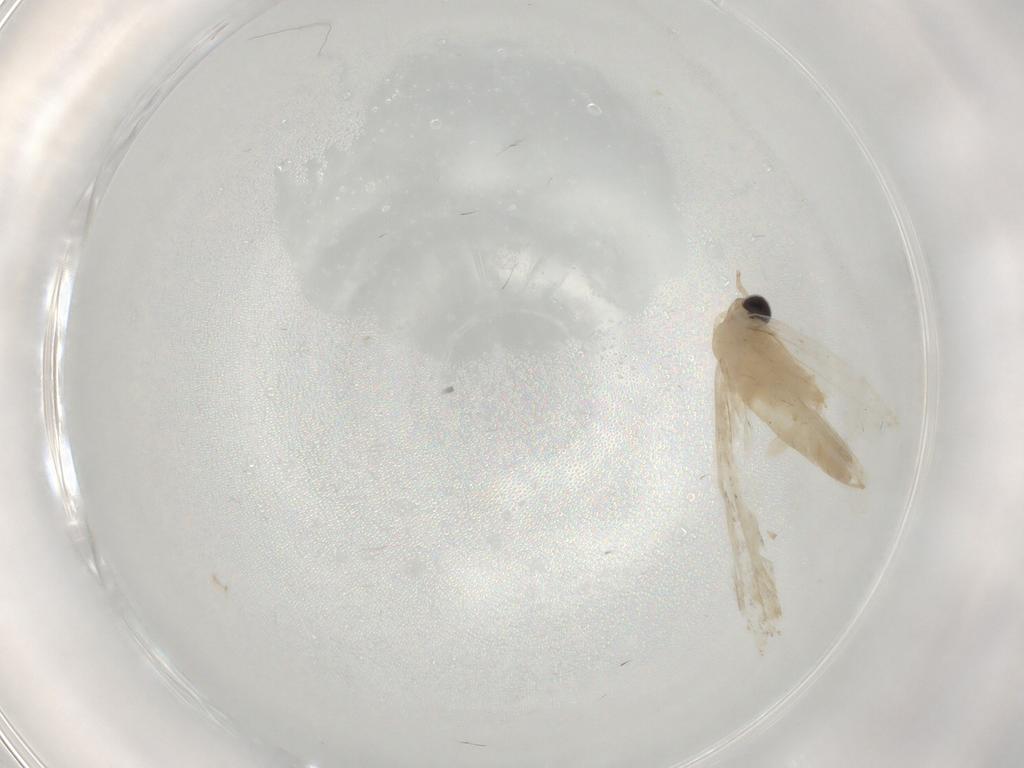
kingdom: Animalia
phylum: Arthropoda
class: Insecta
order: Lepidoptera
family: Psychidae
